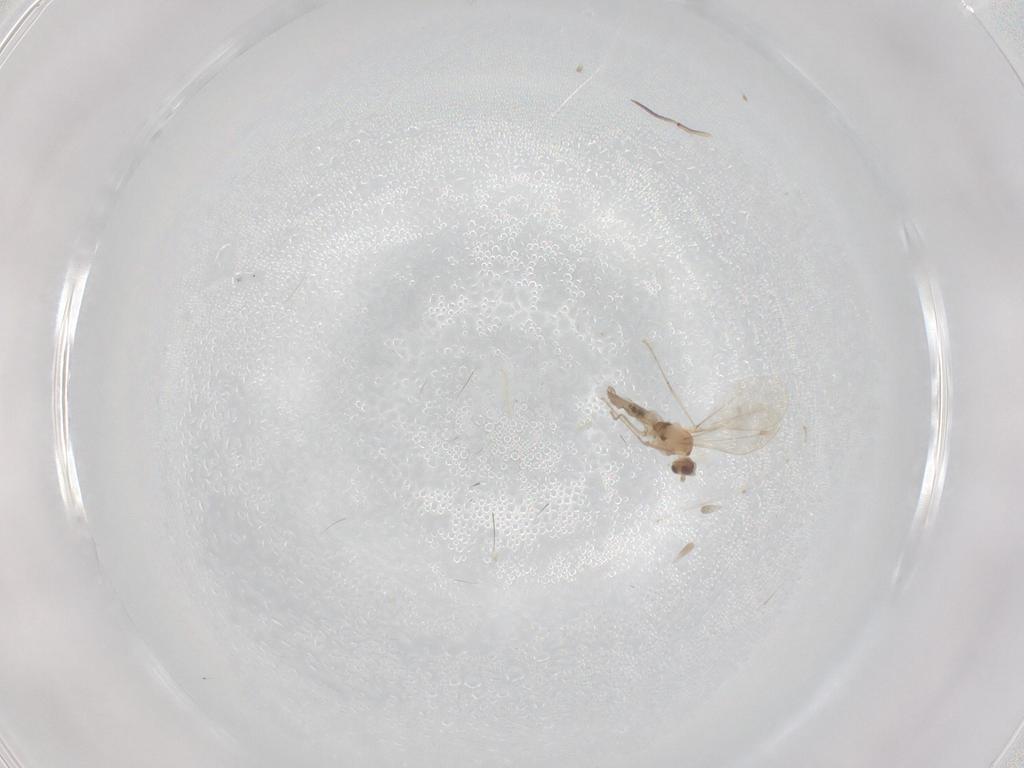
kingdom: Animalia
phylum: Arthropoda
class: Insecta
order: Diptera
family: Cecidomyiidae
